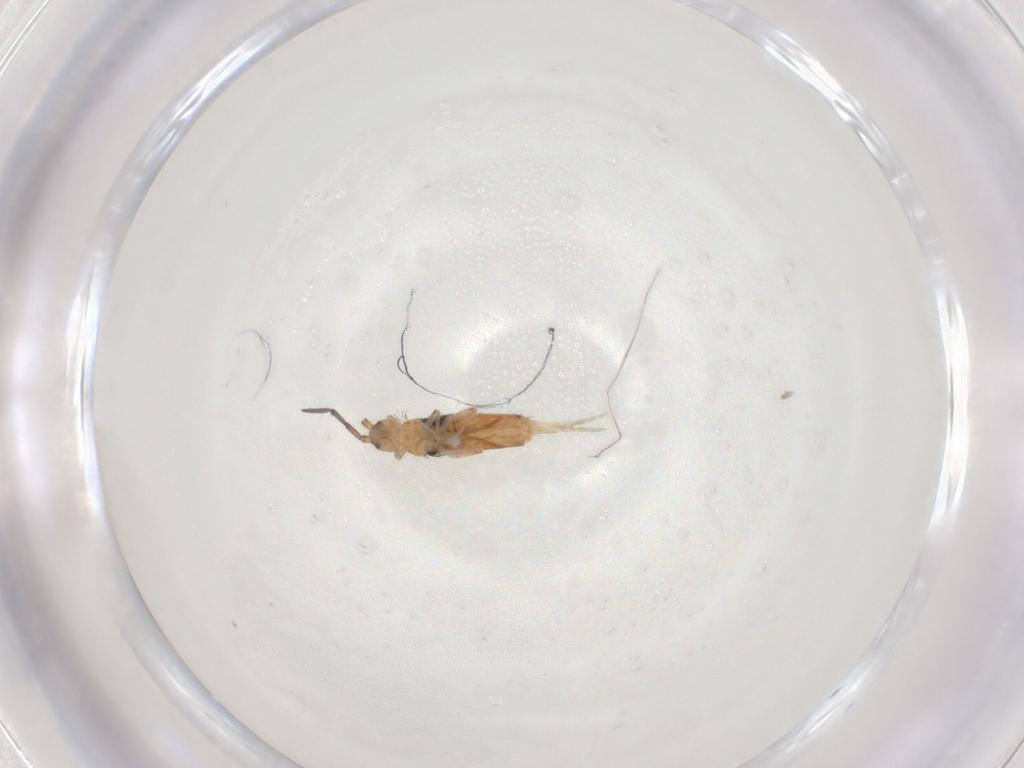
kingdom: Animalia
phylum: Arthropoda
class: Collembola
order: Entomobryomorpha
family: Entomobryidae
